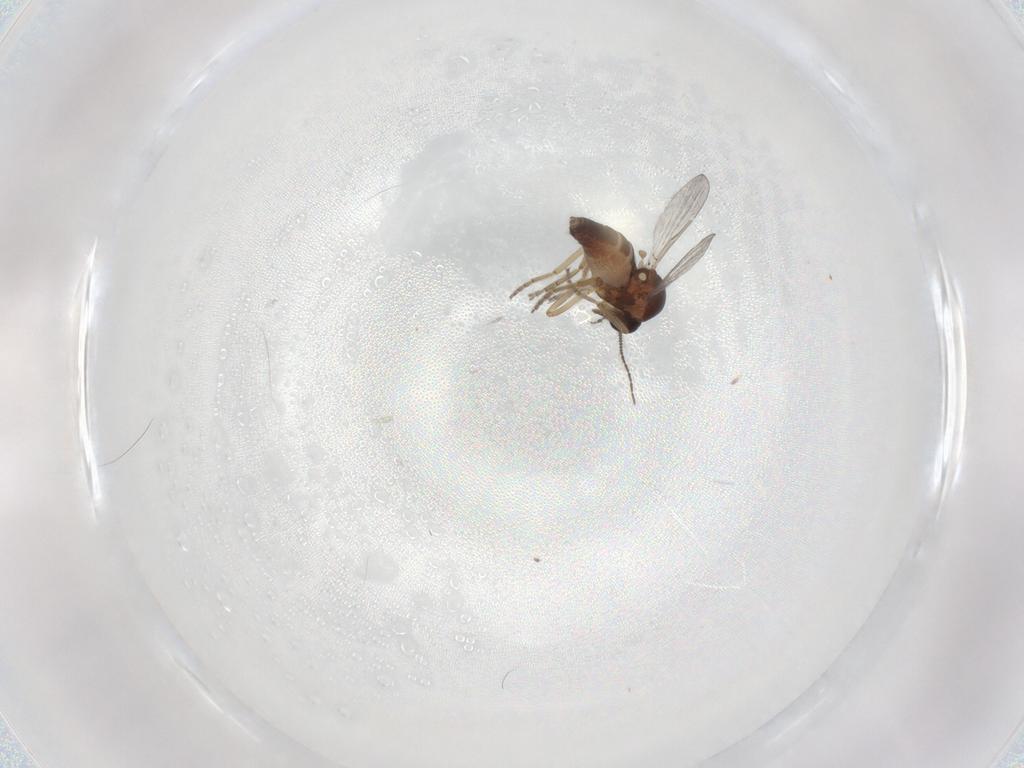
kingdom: Animalia
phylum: Arthropoda
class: Insecta
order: Diptera
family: Ceratopogonidae
